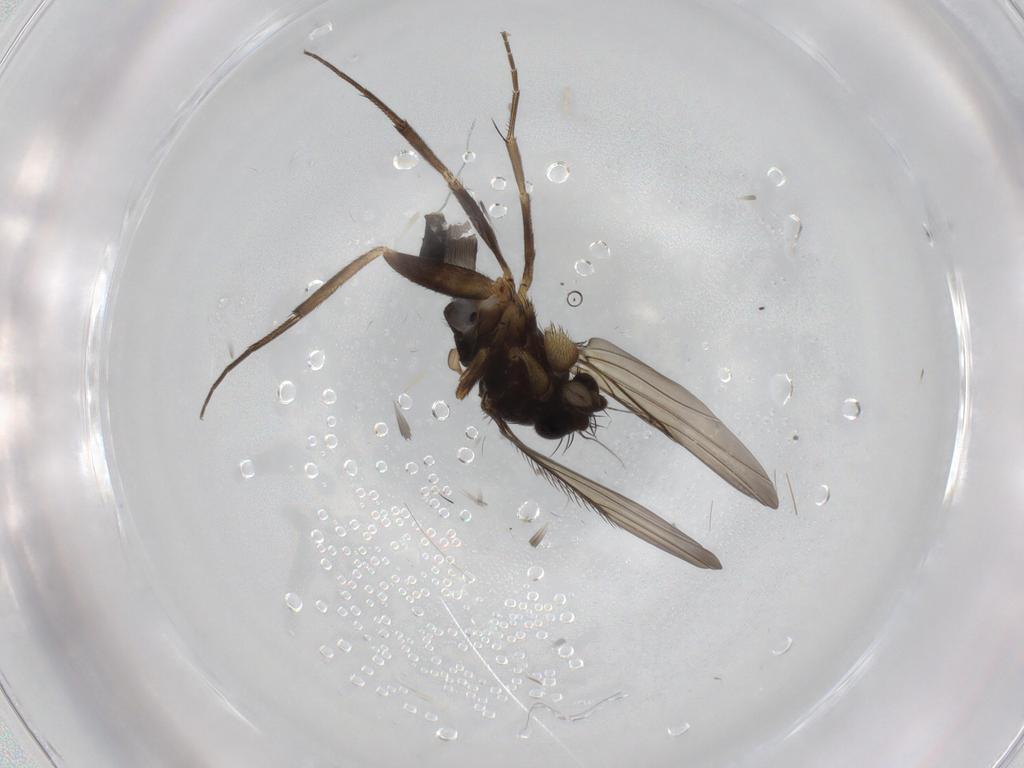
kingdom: Animalia
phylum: Arthropoda
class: Insecta
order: Diptera
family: Phoridae
